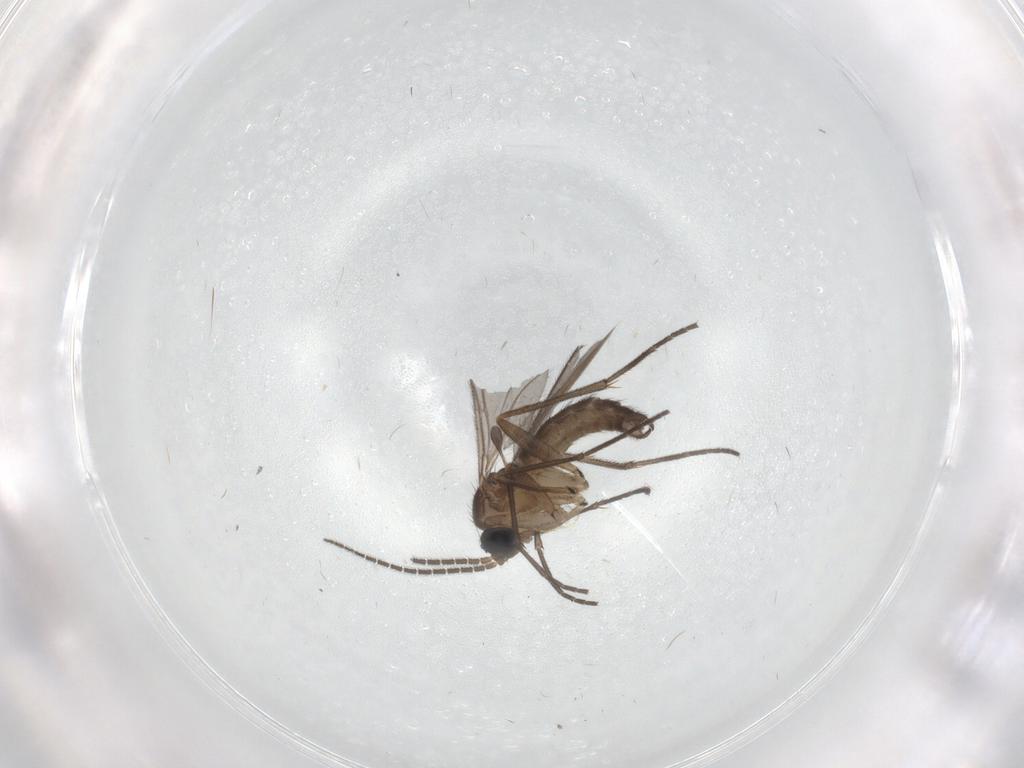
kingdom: Animalia
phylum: Arthropoda
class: Insecta
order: Diptera
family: Sciaridae
